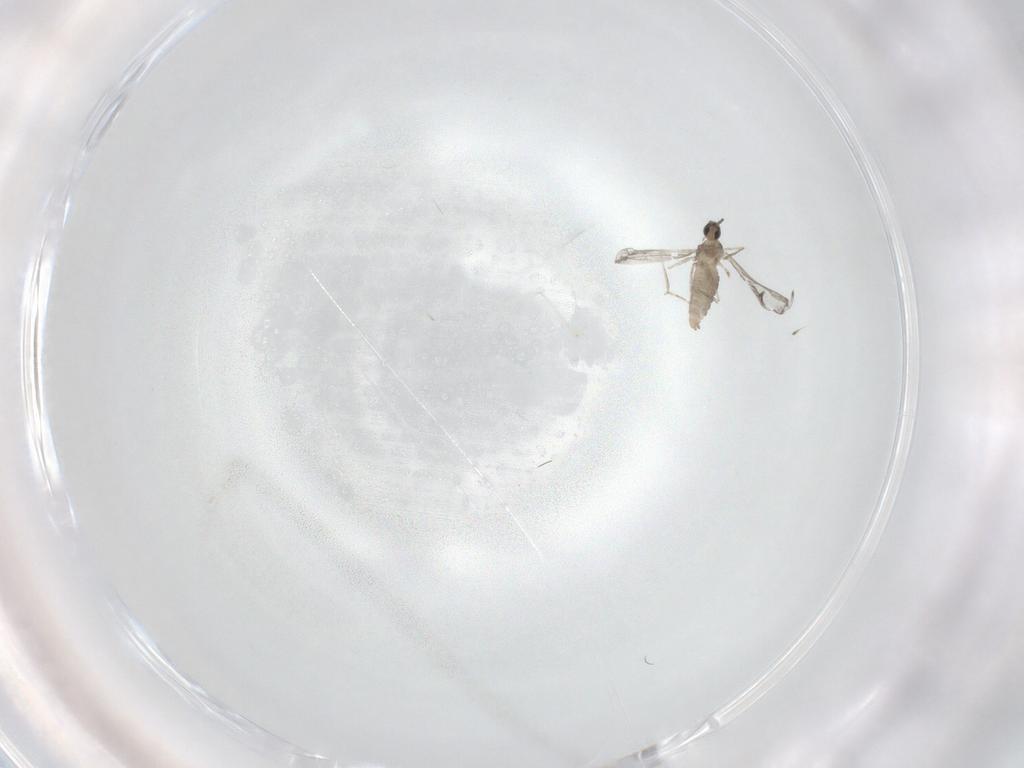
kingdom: Animalia
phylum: Arthropoda
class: Insecta
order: Diptera
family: Cecidomyiidae
